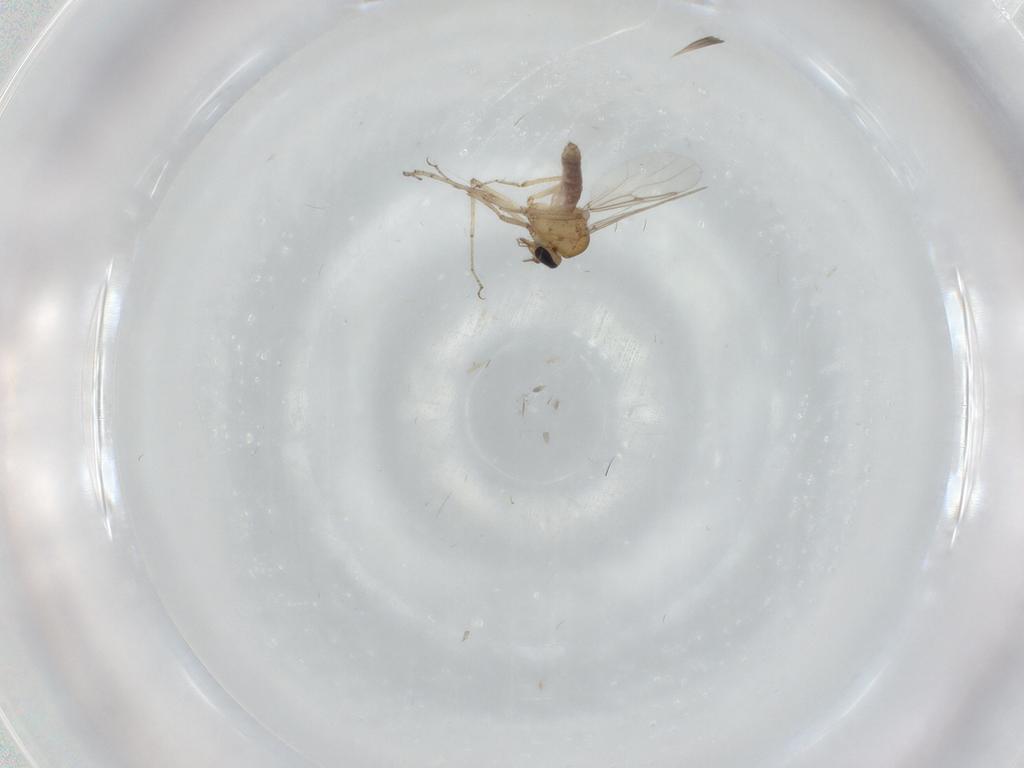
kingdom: Animalia
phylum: Arthropoda
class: Insecta
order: Diptera
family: Ceratopogonidae
